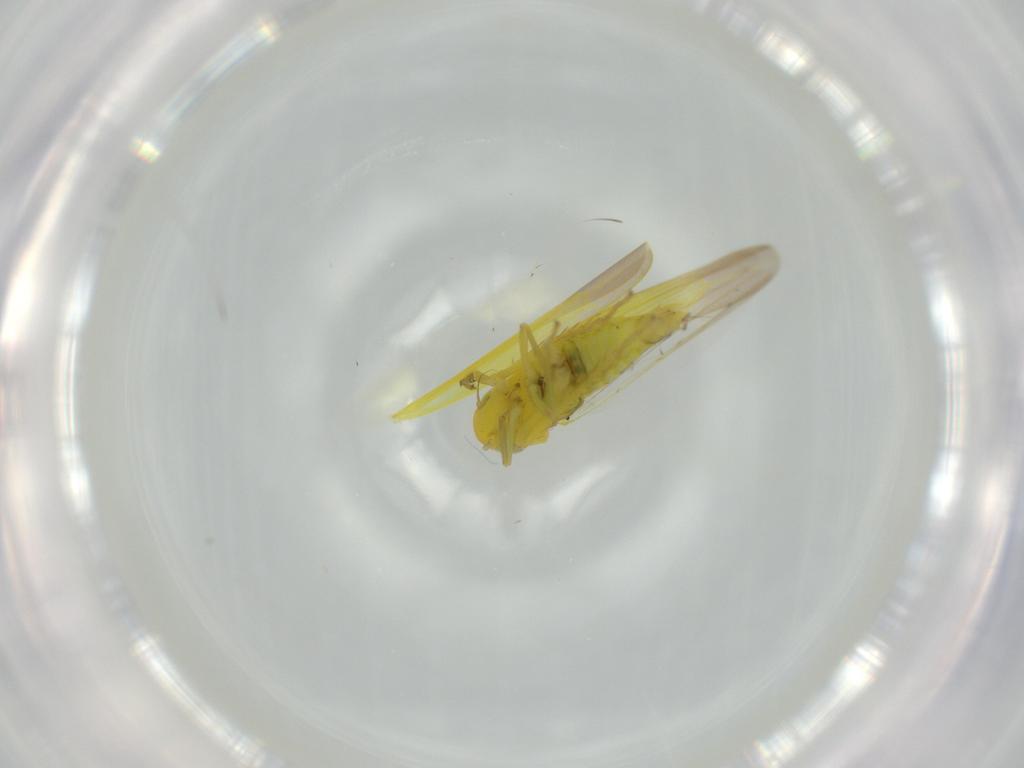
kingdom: Animalia
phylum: Arthropoda
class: Insecta
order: Hemiptera
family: Cicadellidae
